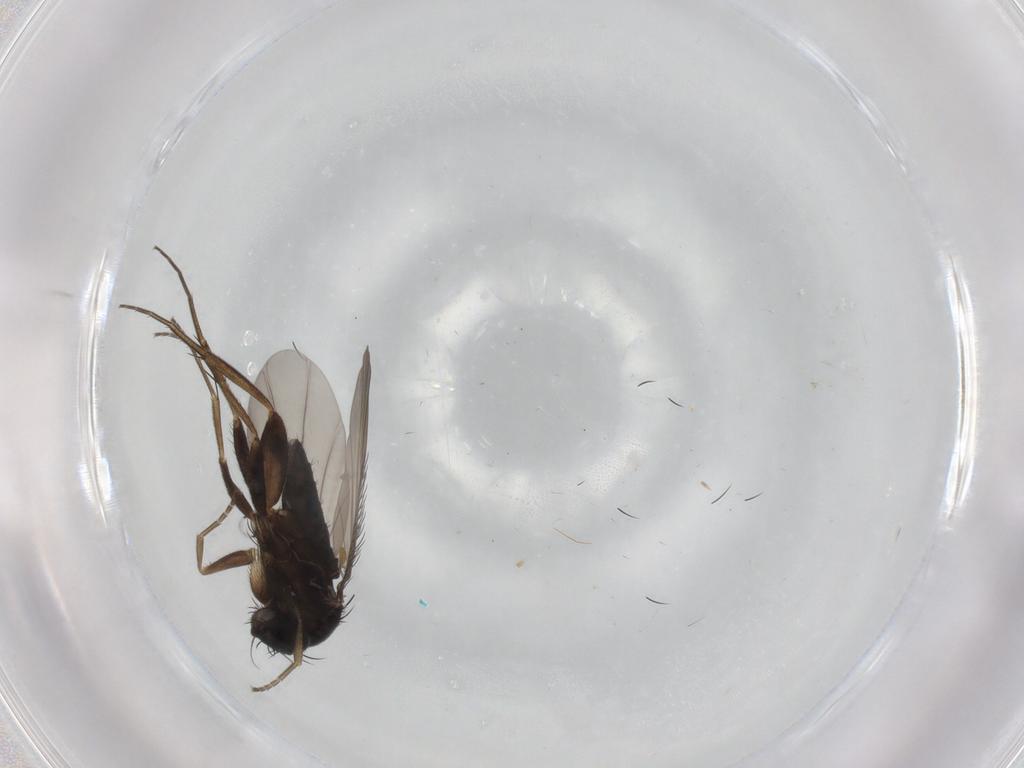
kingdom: Animalia
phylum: Arthropoda
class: Insecta
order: Diptera
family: Phoridae
